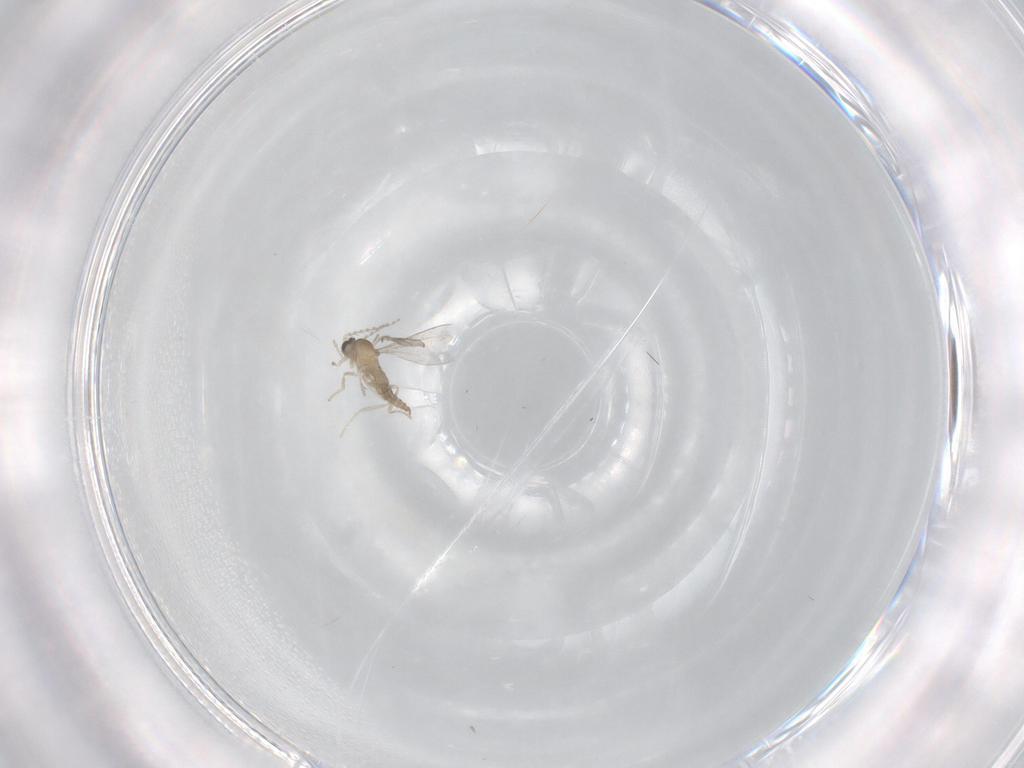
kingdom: Animalia
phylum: Arthropoda
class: Insecta
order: Diptera
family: Cecidomyiidae
